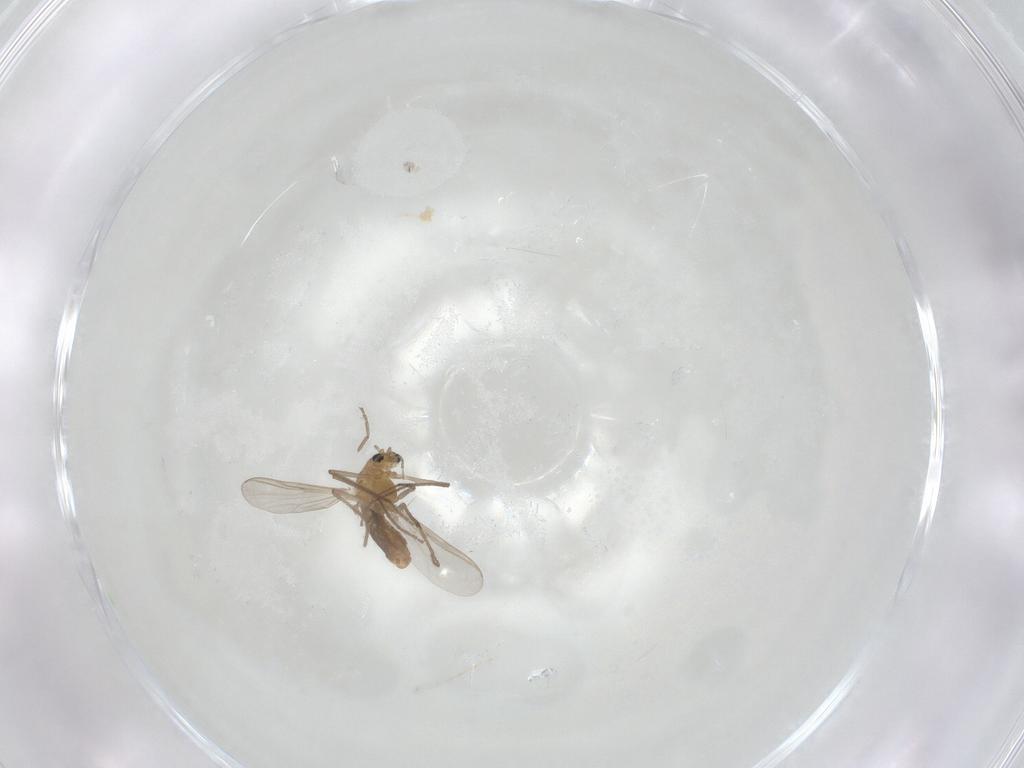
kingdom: Animalia
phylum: Arthropoda
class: Insecta
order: Diptera
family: Chironomidae
